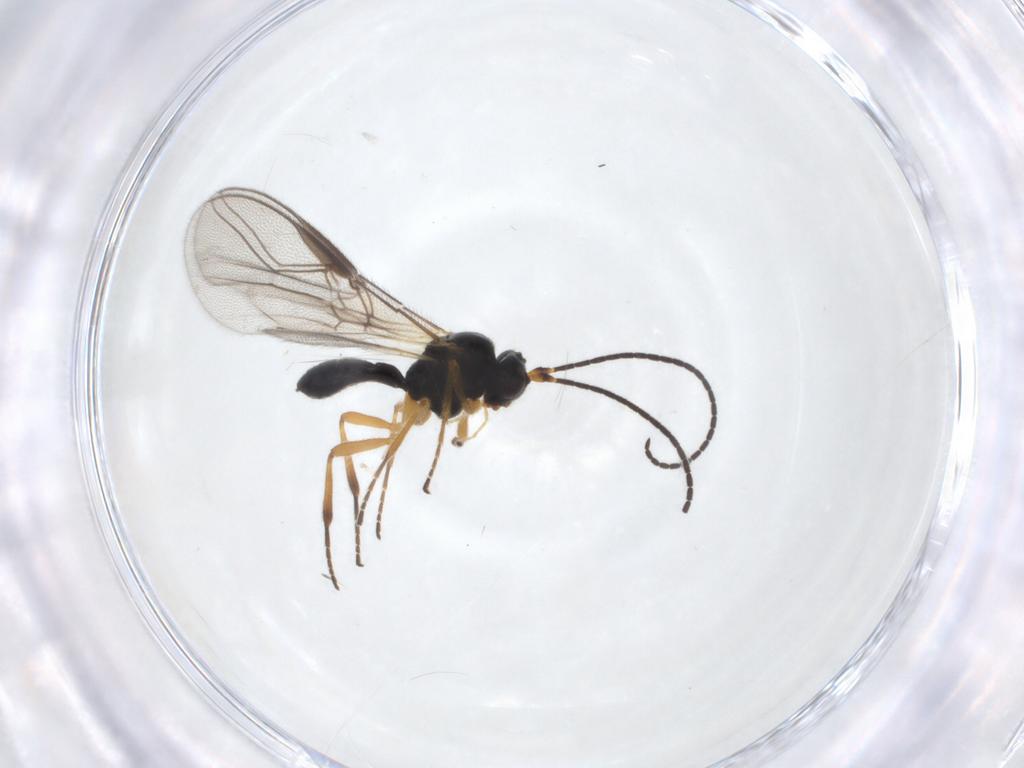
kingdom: Animalia
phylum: Arthropoda
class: Insecta
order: Hymenoptera
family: Braconidae
